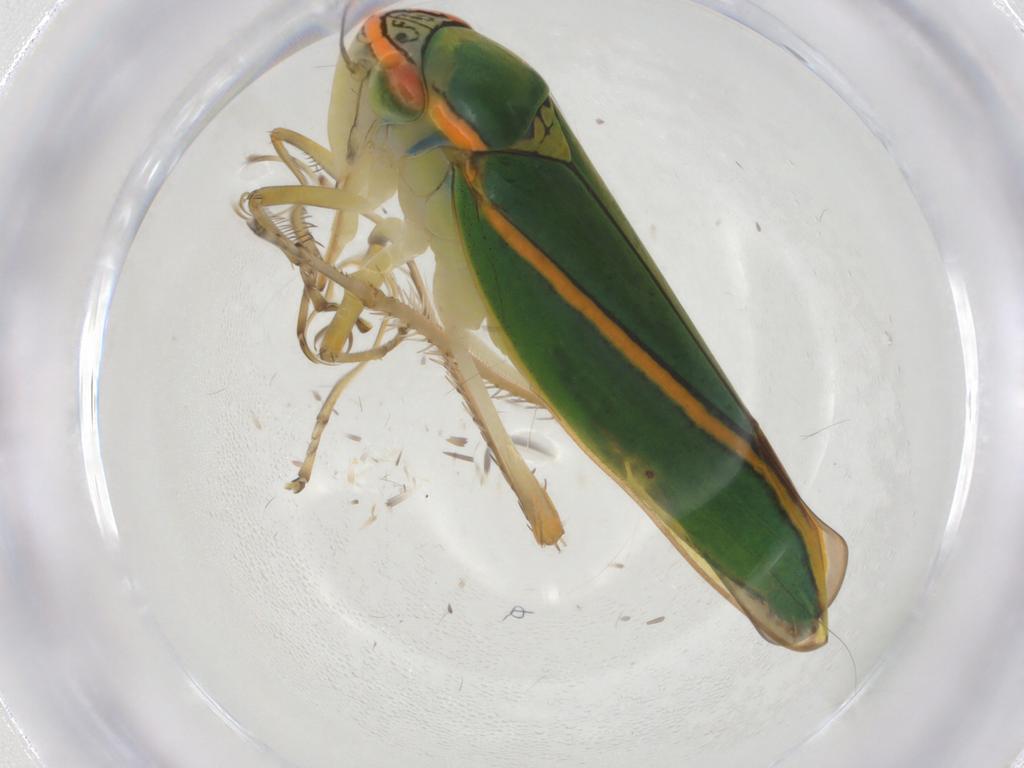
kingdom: Animalia
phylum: Arthropoda
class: Insecta
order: Hemiptera
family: Cicadellidae
